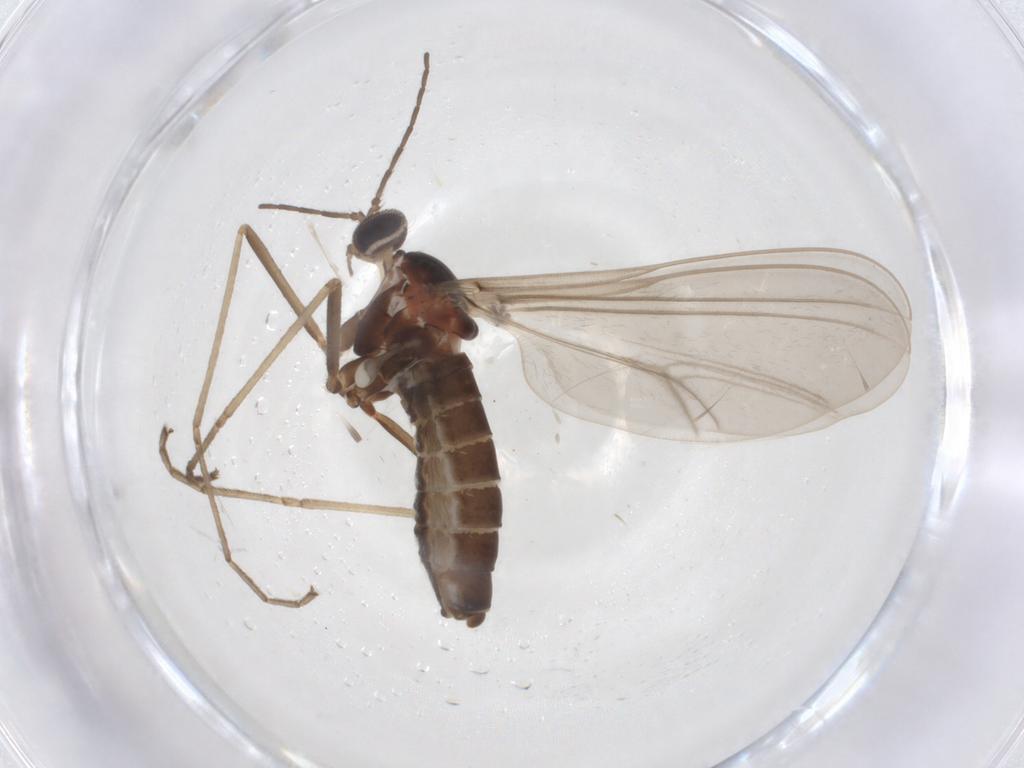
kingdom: Animalia
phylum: Arthropoda
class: Insecta
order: Diptera
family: Cecidomyiidae
